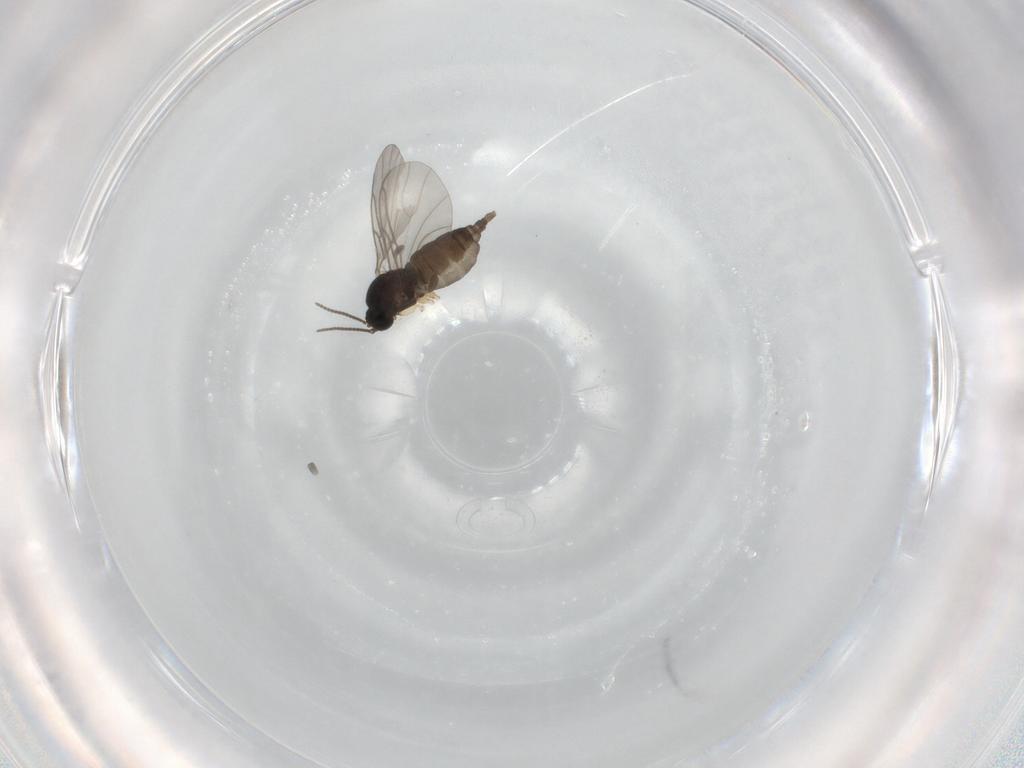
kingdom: Animalia
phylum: Arthropoda
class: Insecta
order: Diptera
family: Sciaridae
